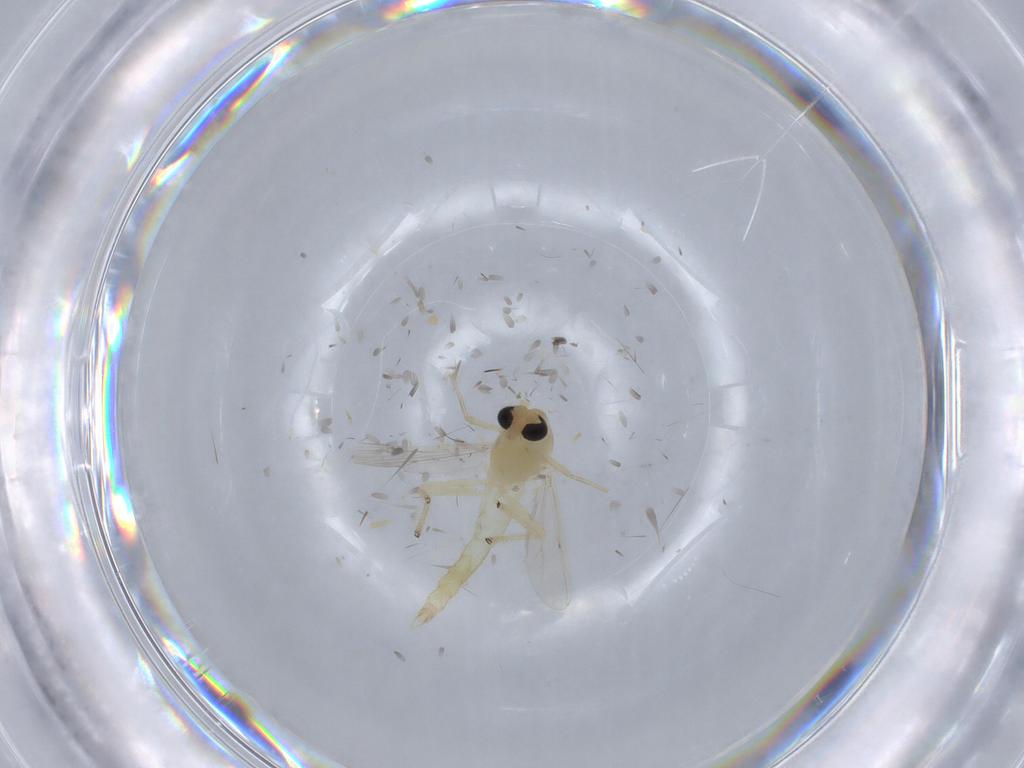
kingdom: Animalia
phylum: Arthropoda
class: Insecta
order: Diptera
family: Chironomidae
